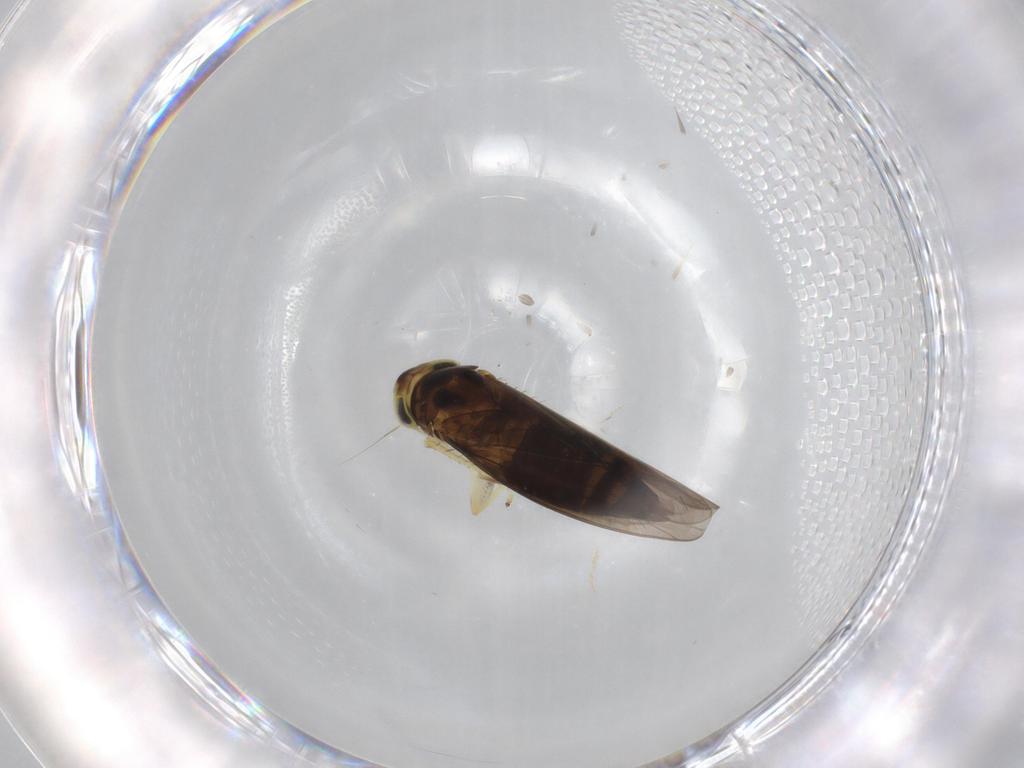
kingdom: Animalia
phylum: Arthropoda
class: Insecta
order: Hemiptera
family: Cicadellidae
